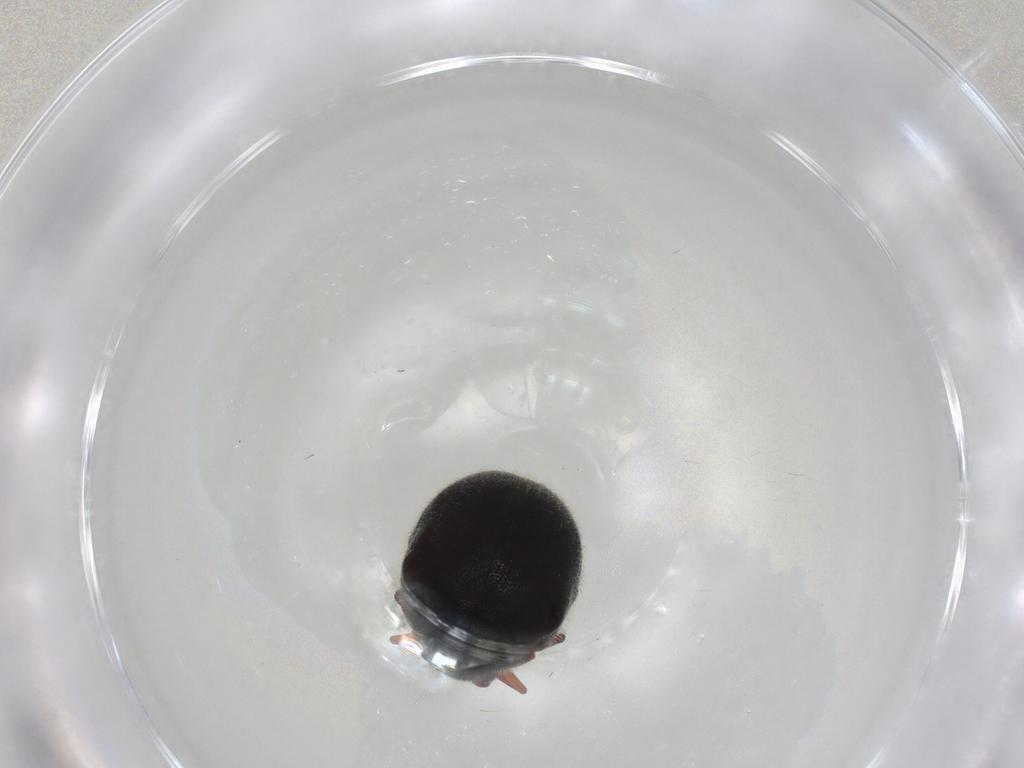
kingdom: Animalia
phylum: Arthropoda
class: Insecta
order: Coleoptera
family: Ptinidae
